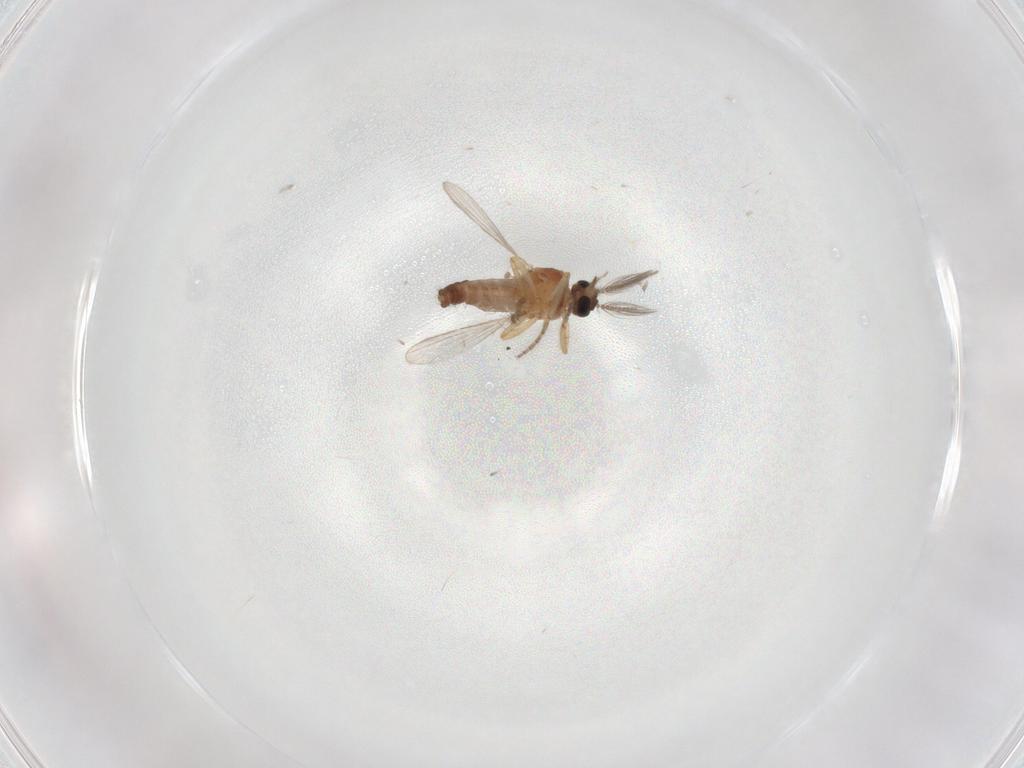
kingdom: Animalia
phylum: Arthropoda
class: Insecta
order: Diptera
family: Ceratopogonidae
